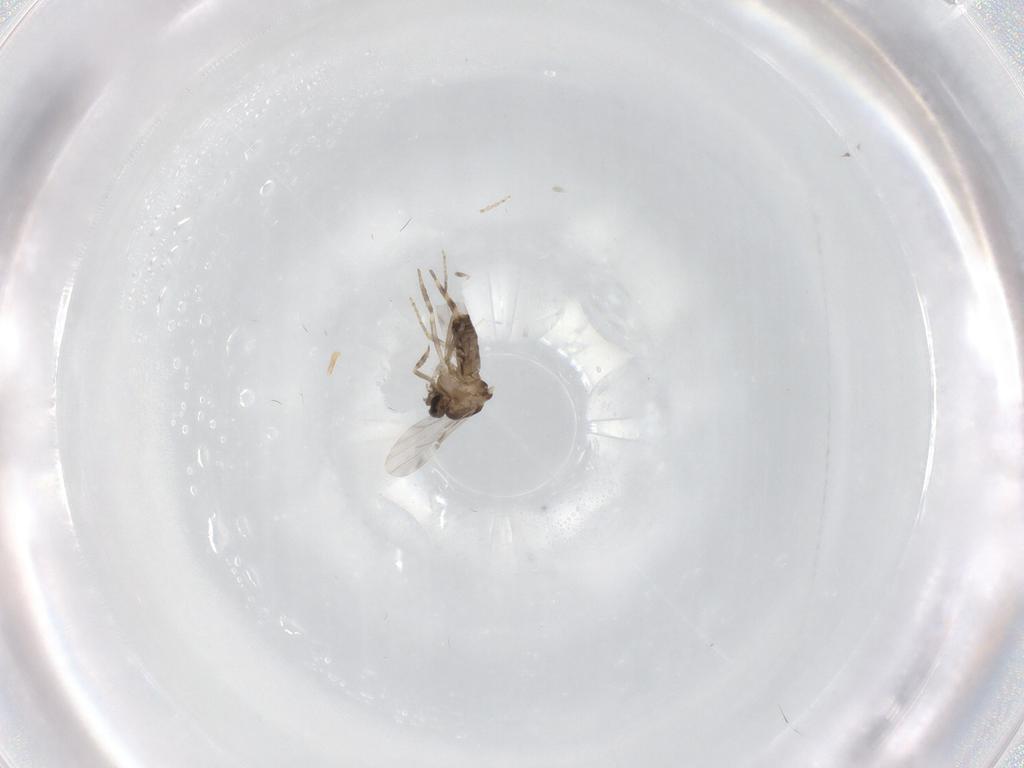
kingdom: Animalia
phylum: Arthropoda
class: Insecta
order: Diptera
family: Ceratopogonidae
